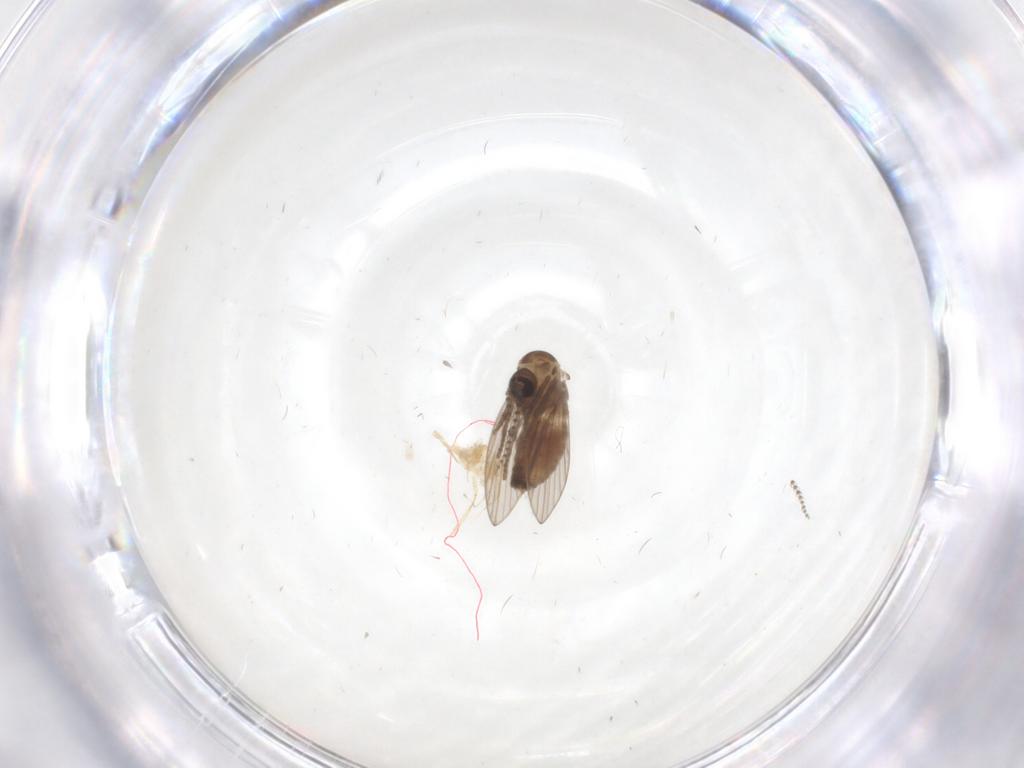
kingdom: Animalia
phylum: Arthropoda
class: Insecta
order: Diptera
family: Psychodidae
